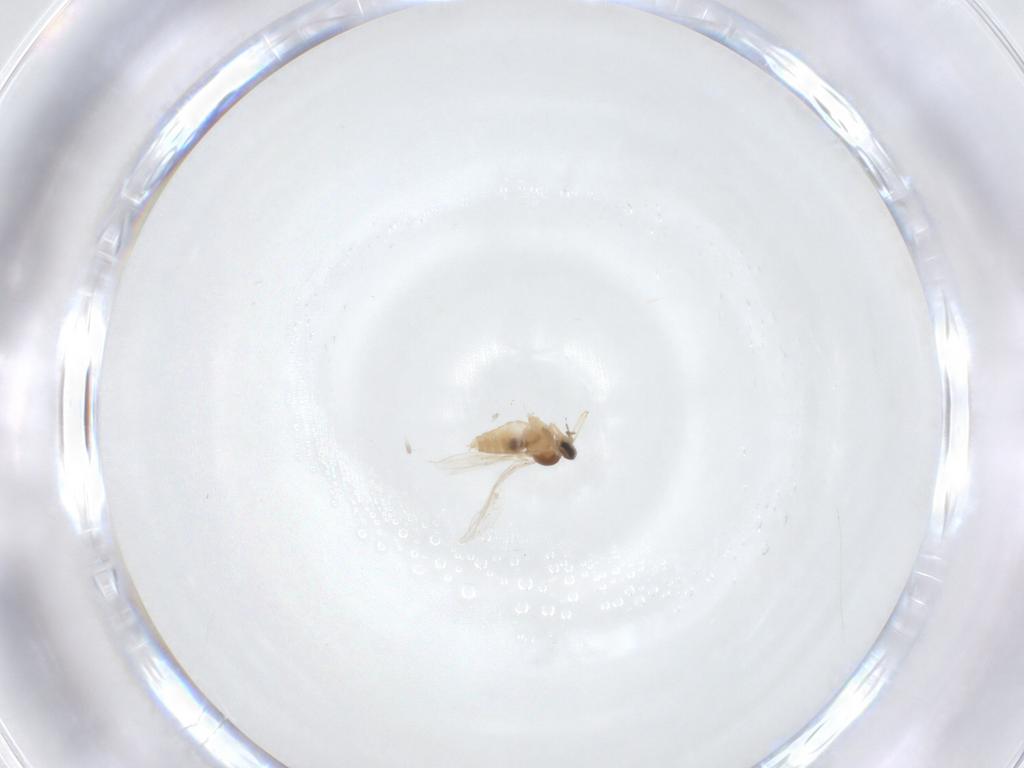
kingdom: Animalia
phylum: Arthropoda
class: Insecta
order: Diptera
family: Cecidomyiidae
